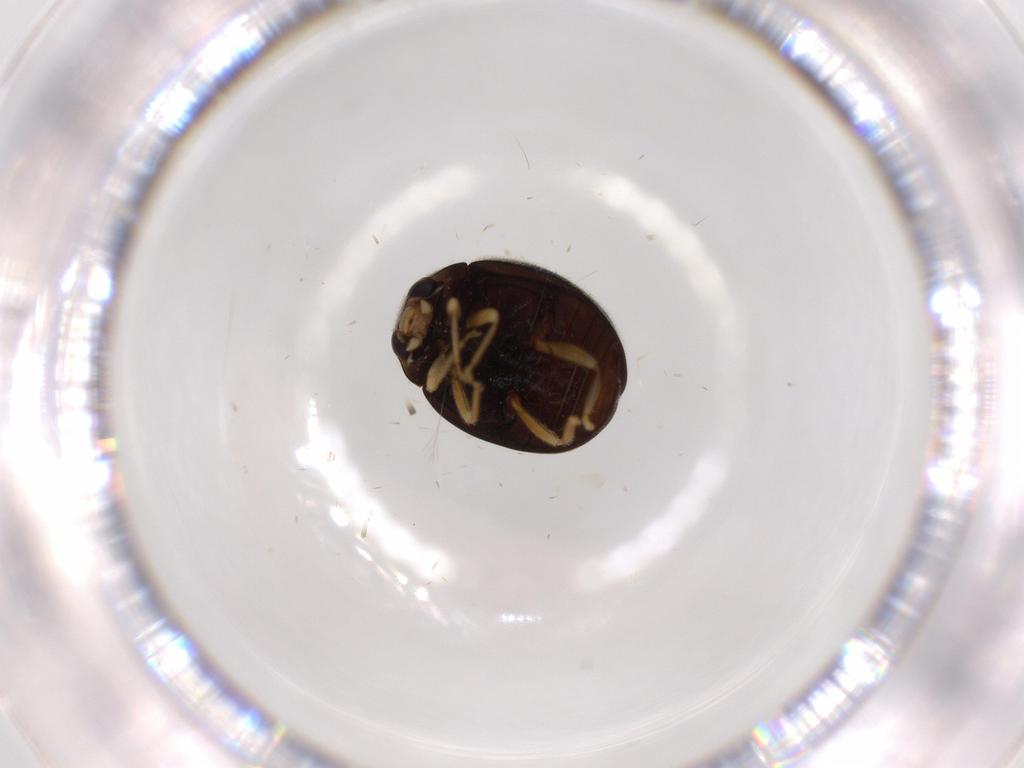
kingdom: Animalia
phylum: Arthropoda
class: Insecta
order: Coleoptera
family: Coccinellidae
